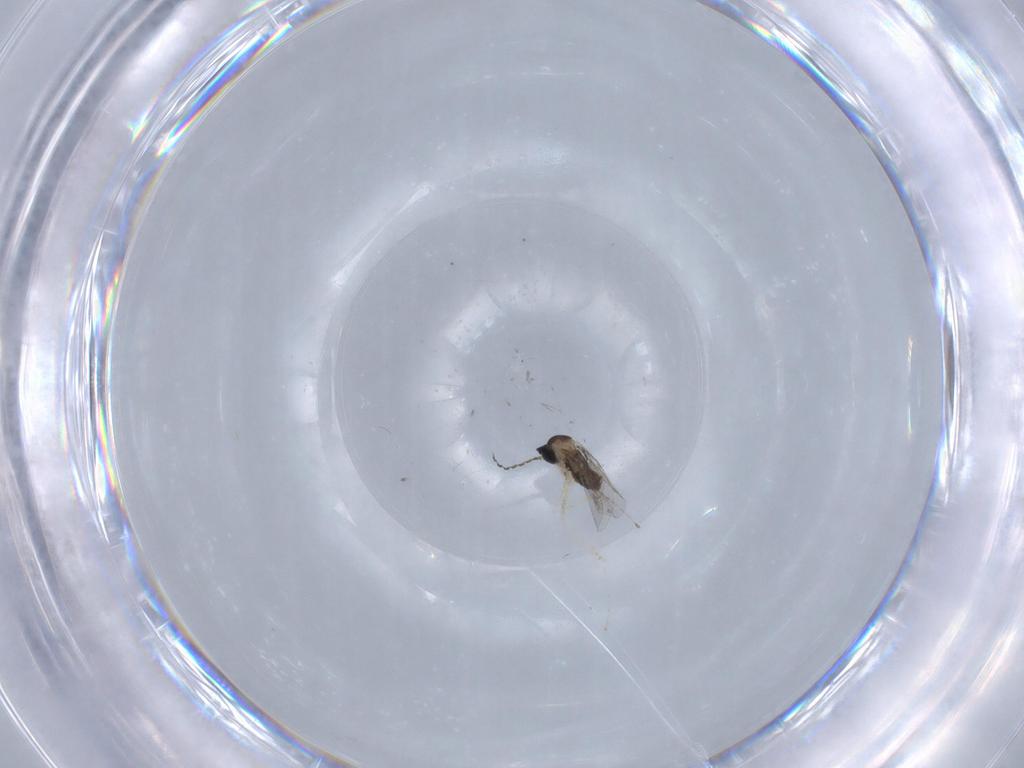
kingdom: Animalia
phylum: Arthropoda
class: Insecta
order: Diptera
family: Cecidomyiidae
